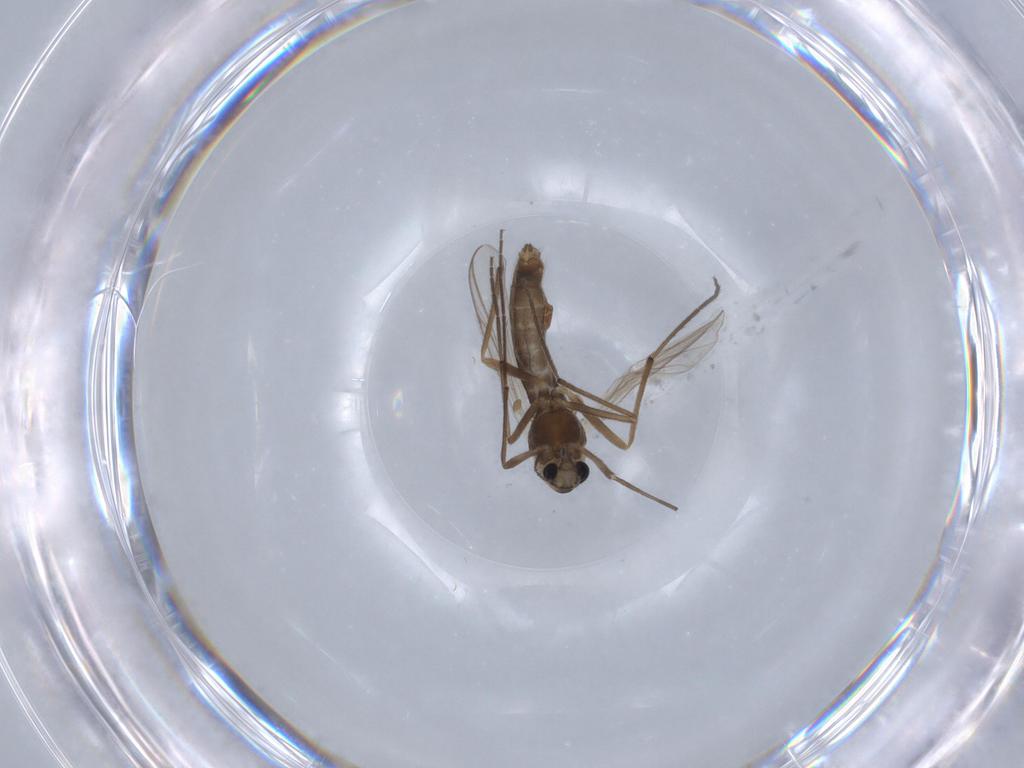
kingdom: Animalia
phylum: Arthropoda
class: Insecta
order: Diptera
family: Chironomidae
